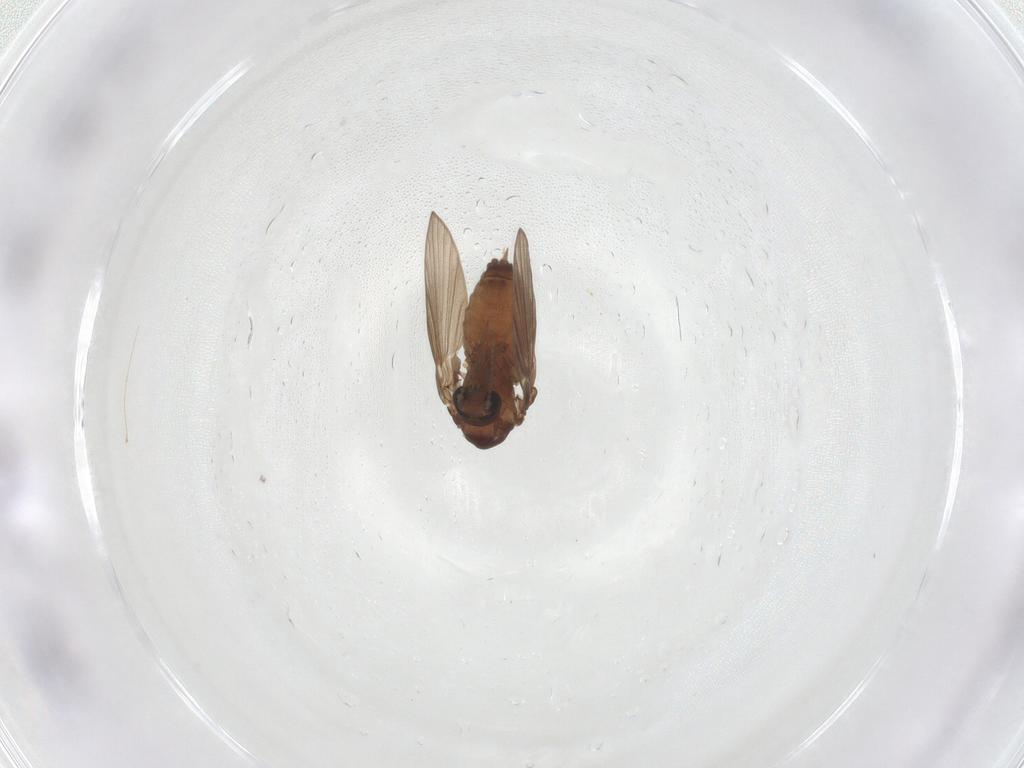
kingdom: Animalia
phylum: Arthropoda
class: Insecta
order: Diptera
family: Psychodidae
